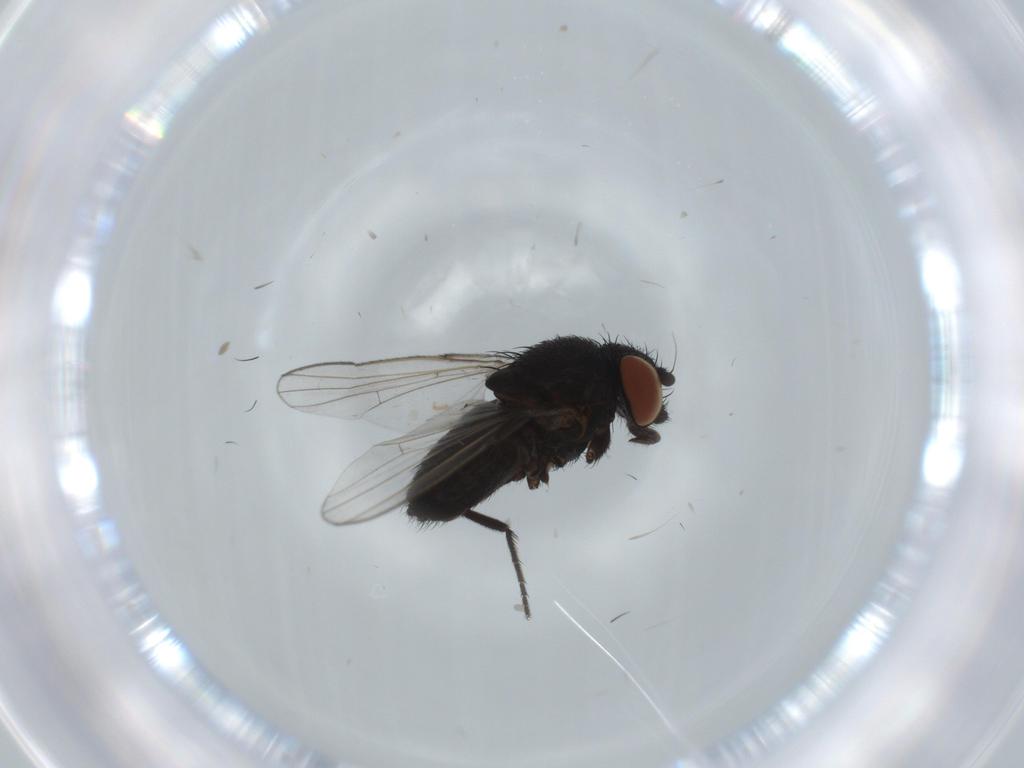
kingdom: Animalia
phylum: Arthropoda
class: Insecta
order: Diptera
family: Milichiidae
